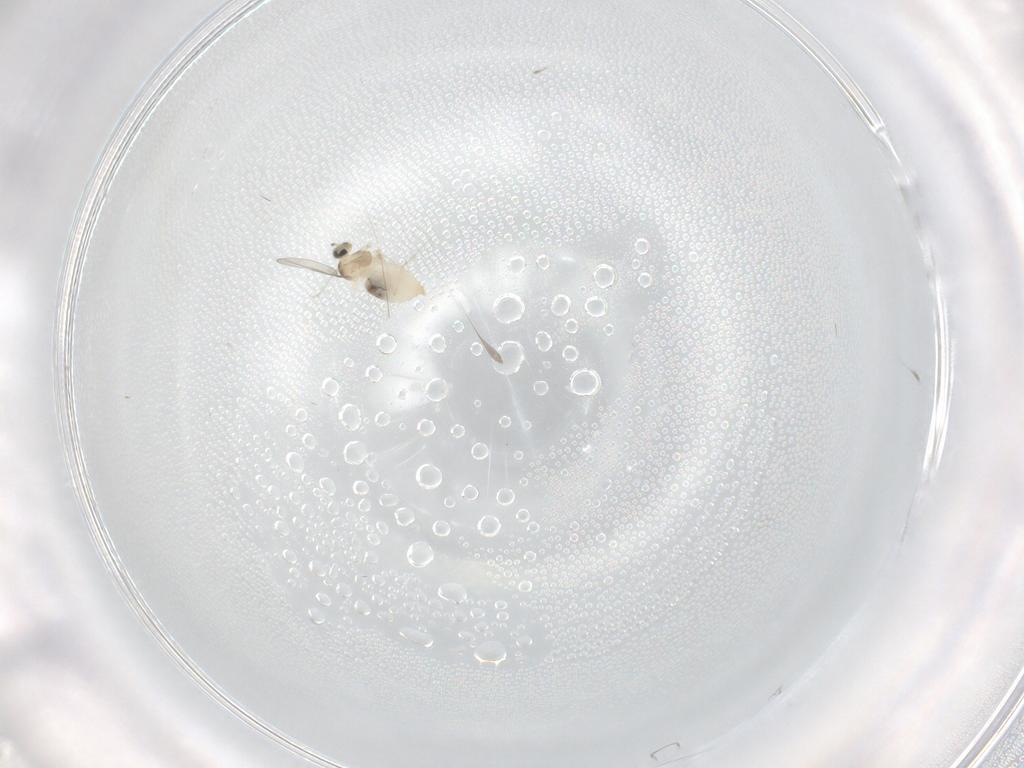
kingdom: Animalia
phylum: Arthropoda
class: Insecta
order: Diptera
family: Cecidomyiidae
